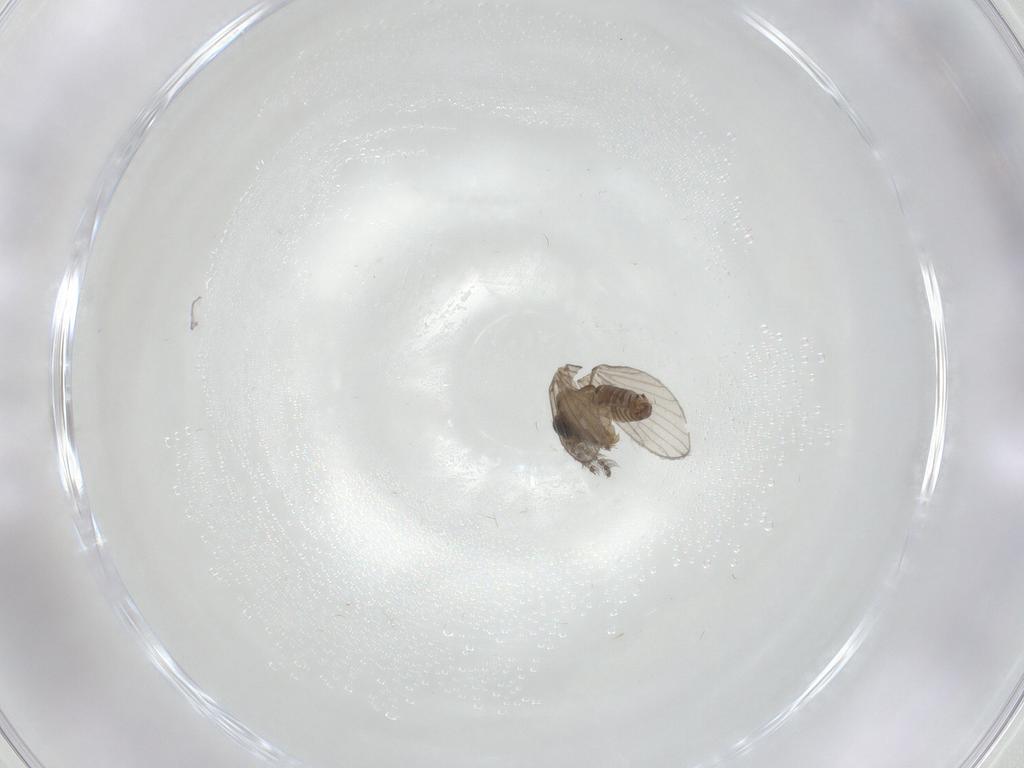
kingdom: Animalia
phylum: Arthropoda
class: Insecta
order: Diptera
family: Psychodidae
